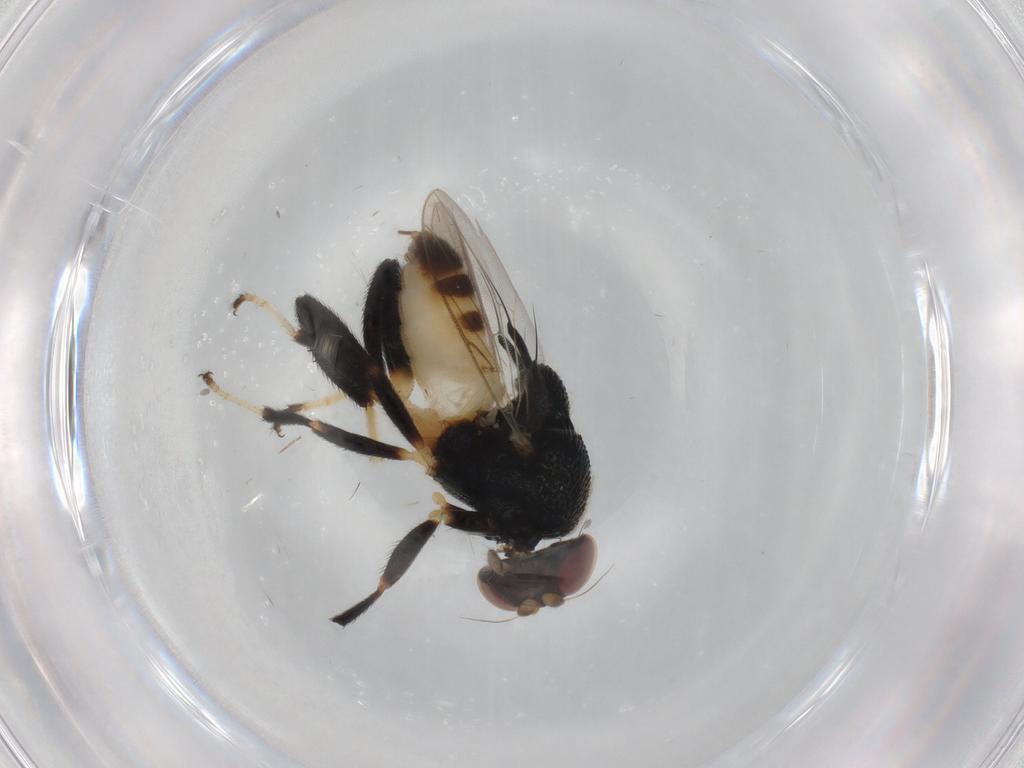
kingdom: Animalia
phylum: Arthropoda
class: Insecta
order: Diptera
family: Chloropidae
